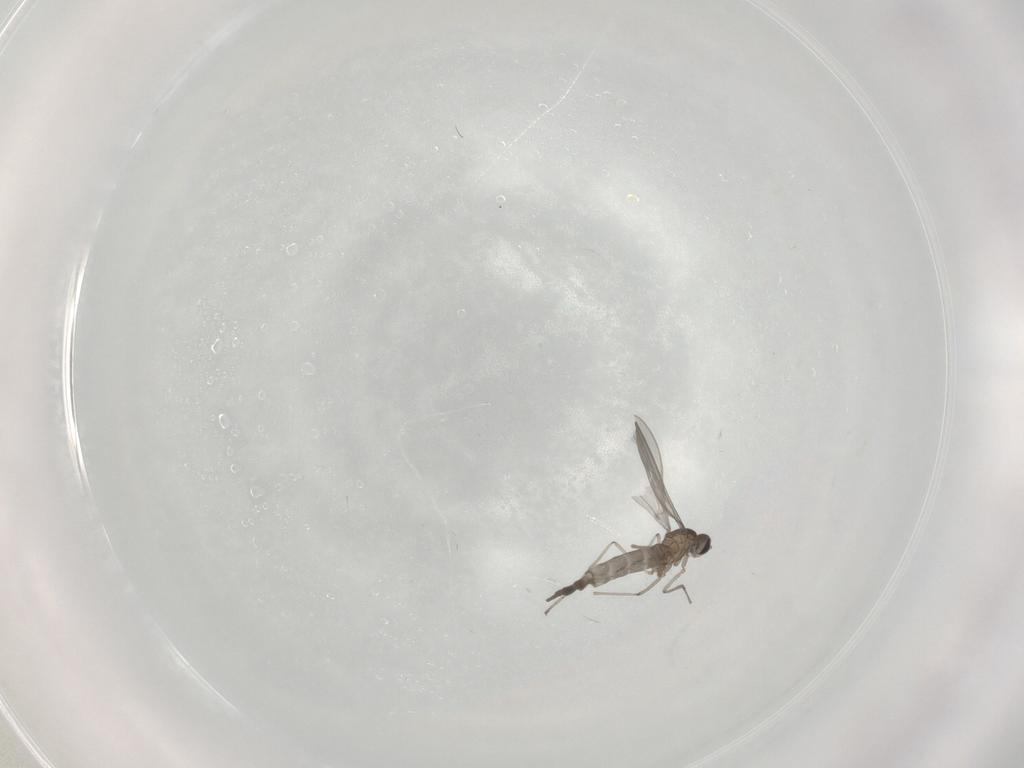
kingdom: Animalia
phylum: Arthropoda
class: Insecta
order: Diptera
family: Cecidomyiidae
